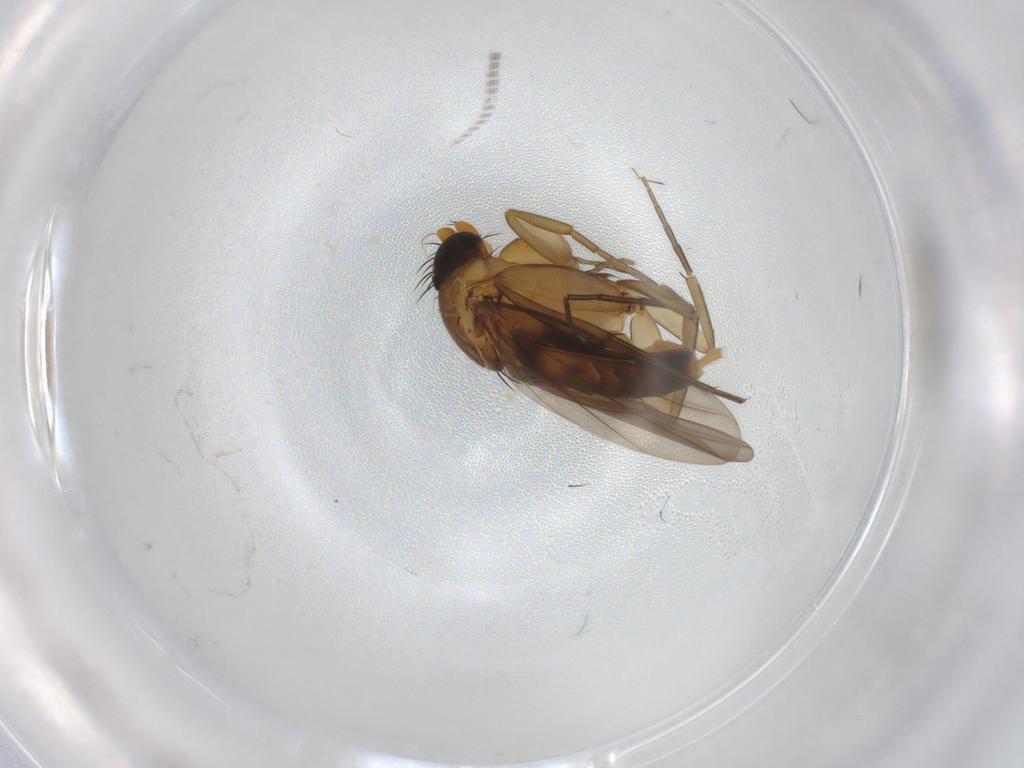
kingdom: Animalia
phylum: Arthropoda
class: Insecta
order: Diptera
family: Cecidomyiidae
